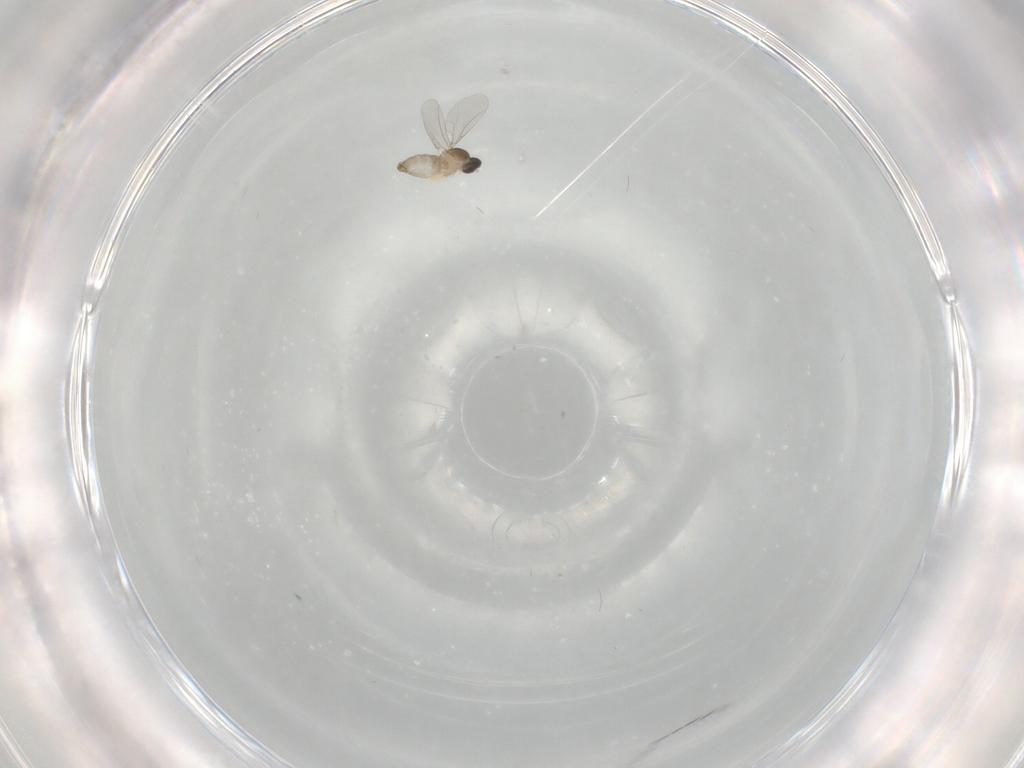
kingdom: Animalia
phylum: Arthropoda
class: Insecta
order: Diptera
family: Cecidomyiidae
